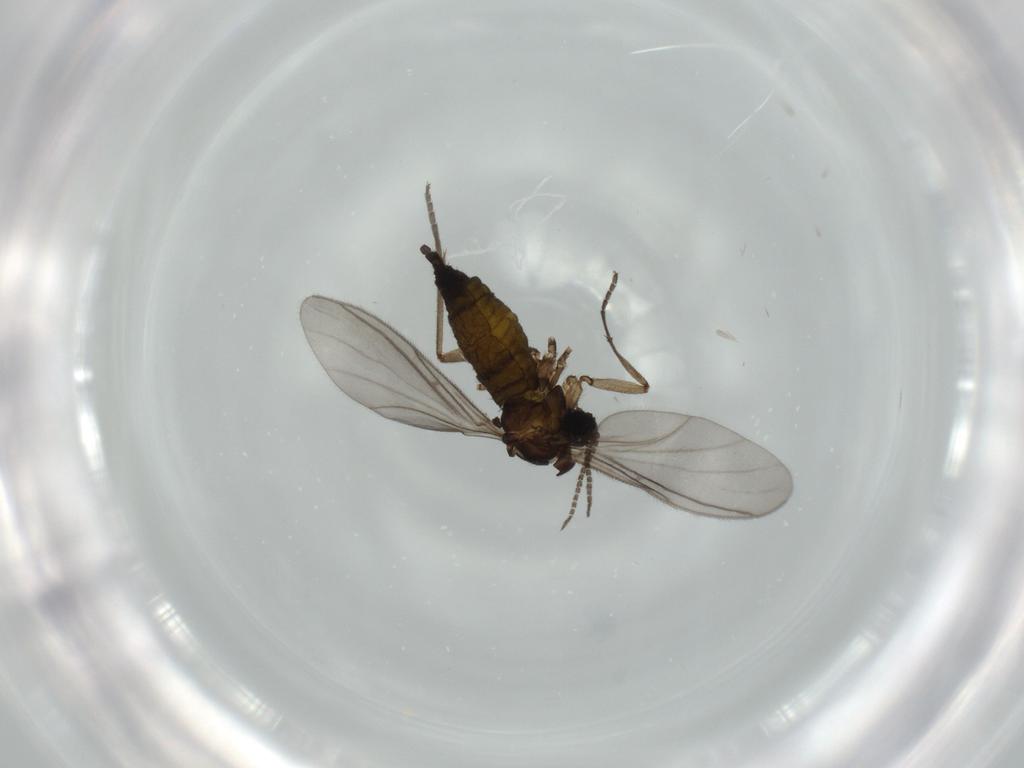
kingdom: Animalia
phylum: Arthropoda
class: Insecta
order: Diptera
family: Sciaridae
